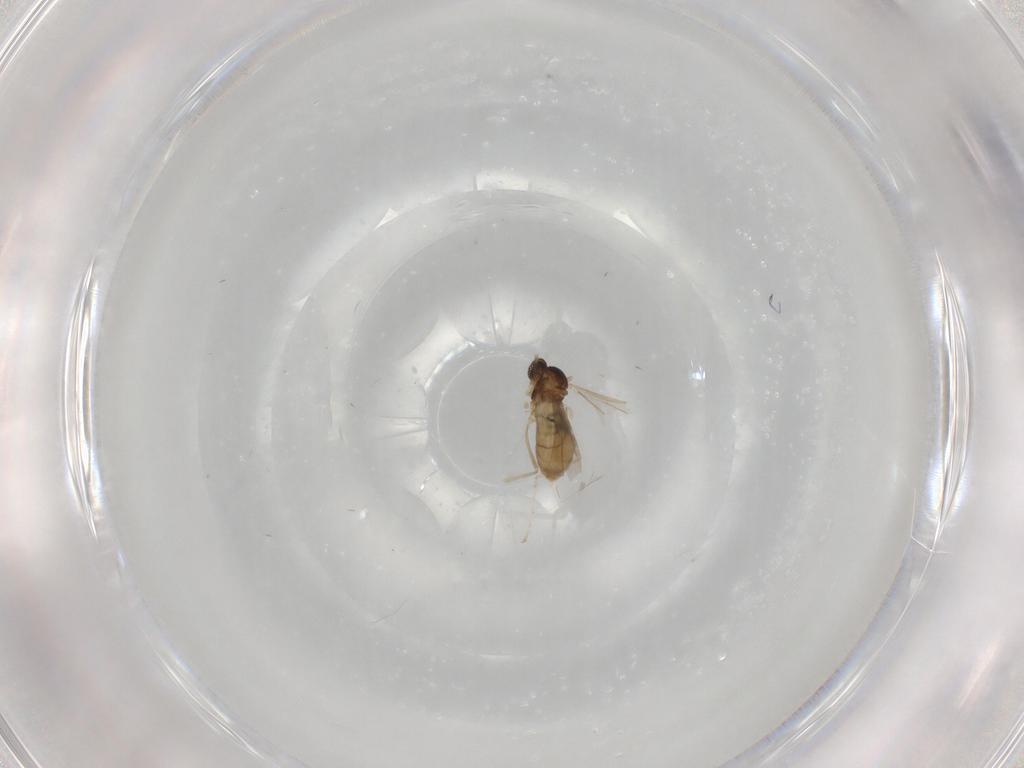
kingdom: Animalia
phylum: Arthropoda
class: Insecta
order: Diptera
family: Cecidomyiidae
